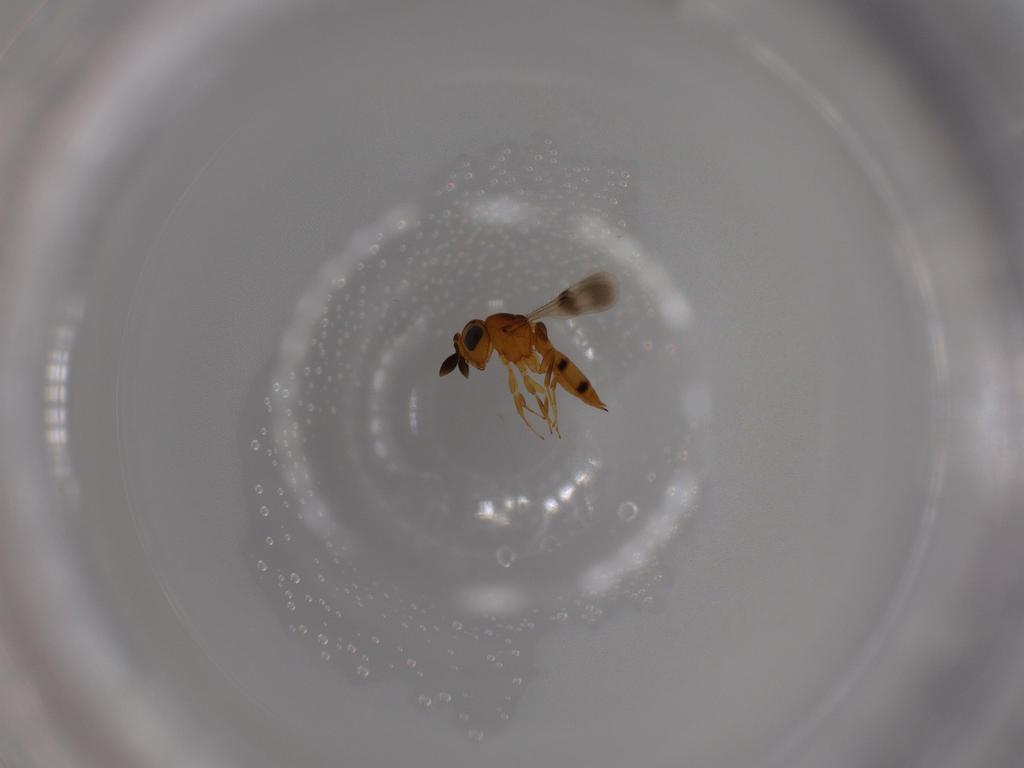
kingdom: Animalia
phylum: Arthropoda
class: Insecta
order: Hymenoptera
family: Scelionidae
